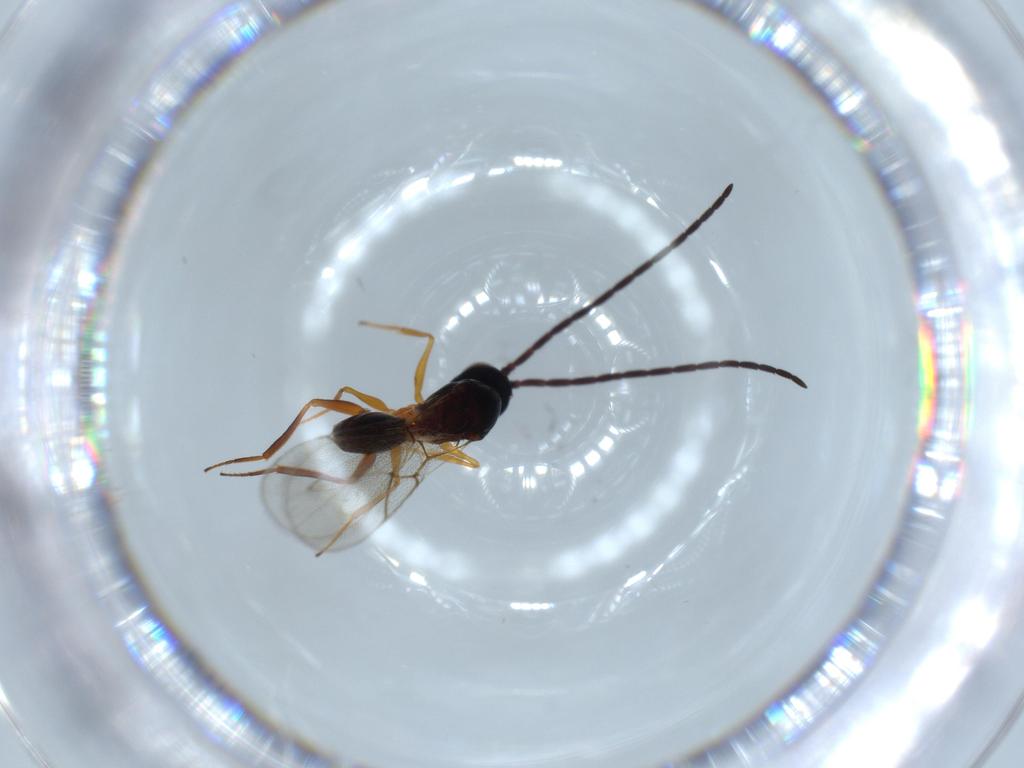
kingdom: Animalia
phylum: Arthropoda
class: Insecta
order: Hymenoptera
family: Figitidae
